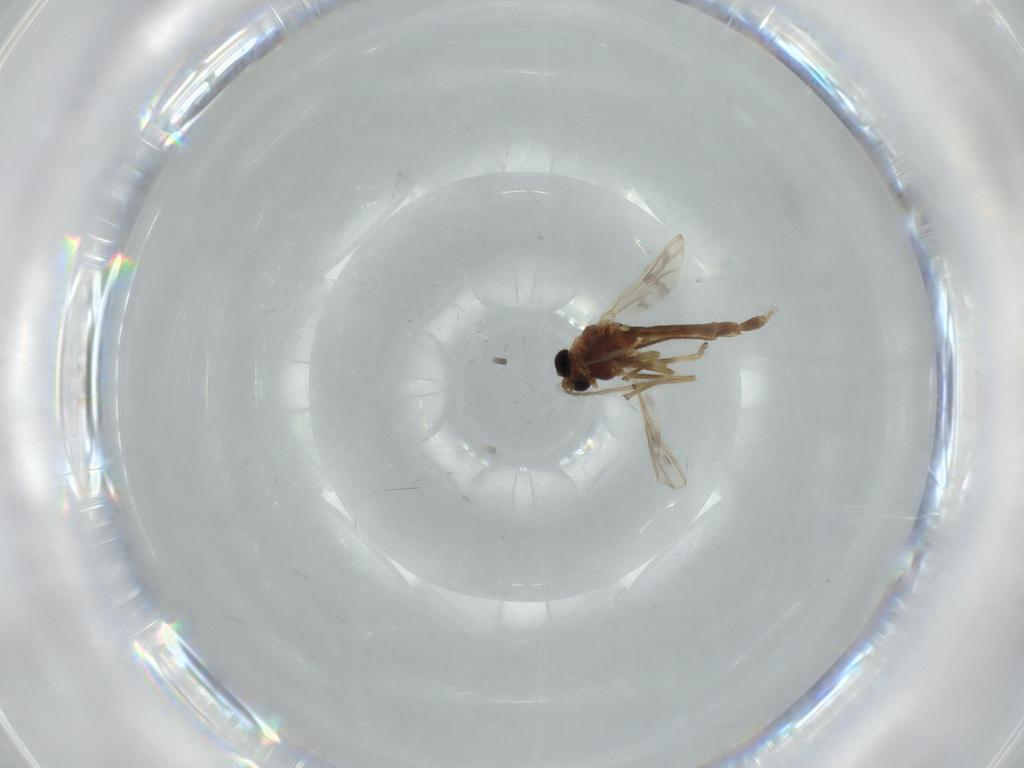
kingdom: Animalia
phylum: Arthropoda
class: Insecta
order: Diptera
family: Chironomidae
